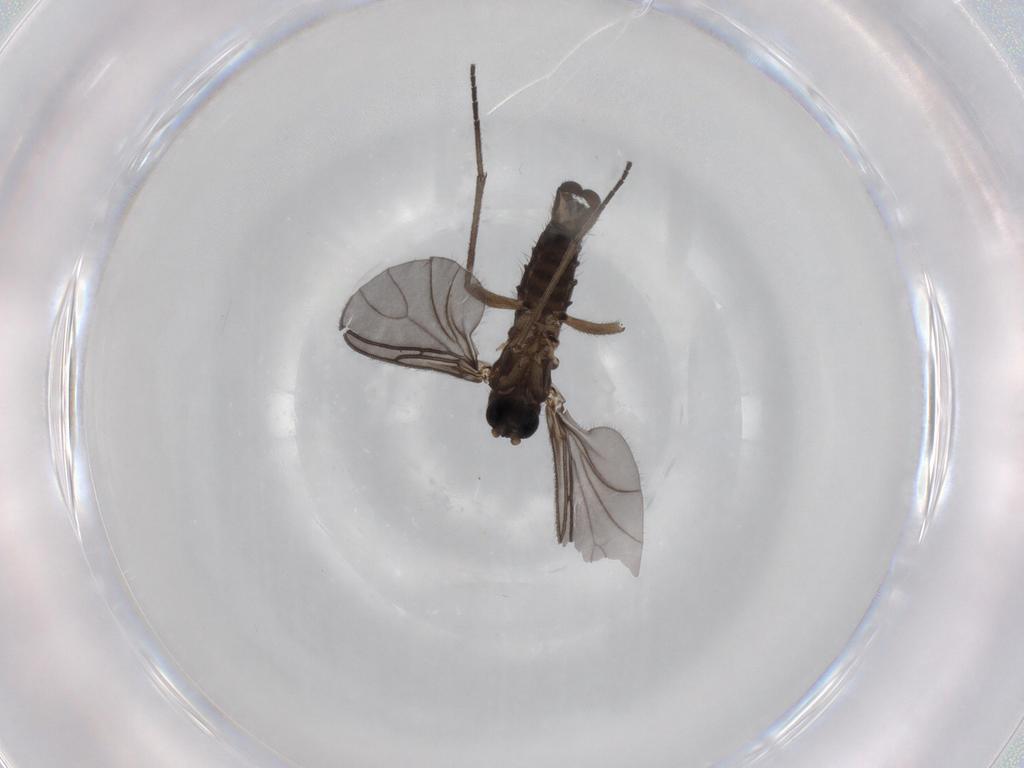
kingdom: Animalia
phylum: Arthropoda
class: Insecta
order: Diptera
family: Sciaridae
